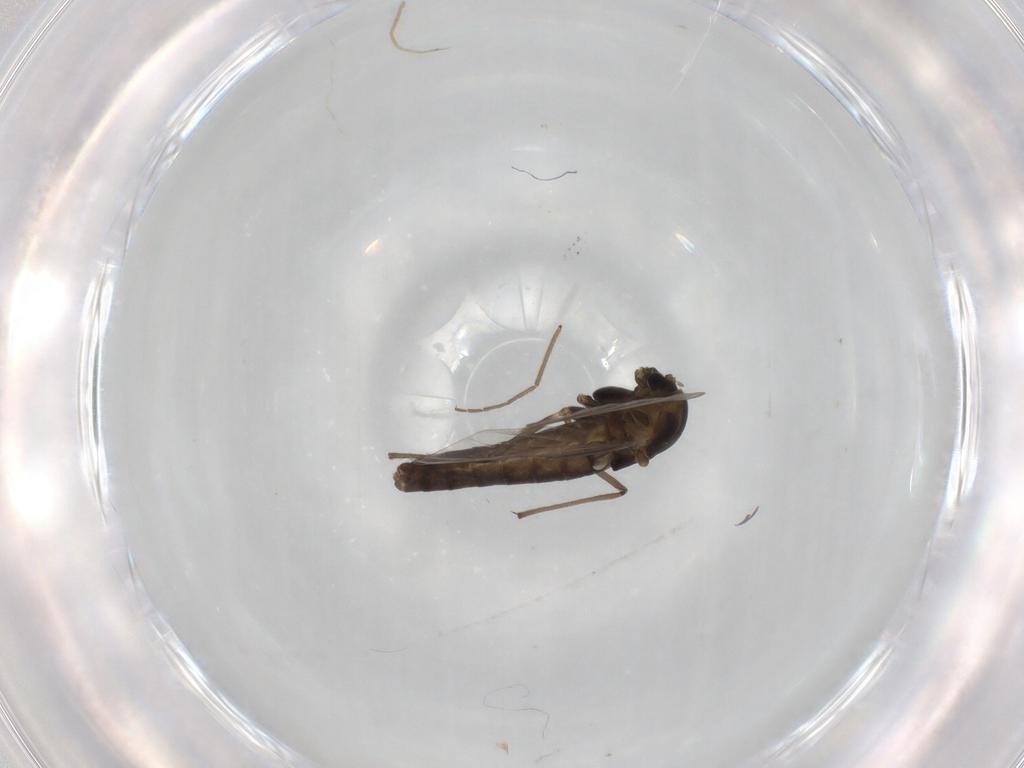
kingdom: Animalia
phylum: Arthropoda
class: Insecta
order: Diptera
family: Chironomidae
